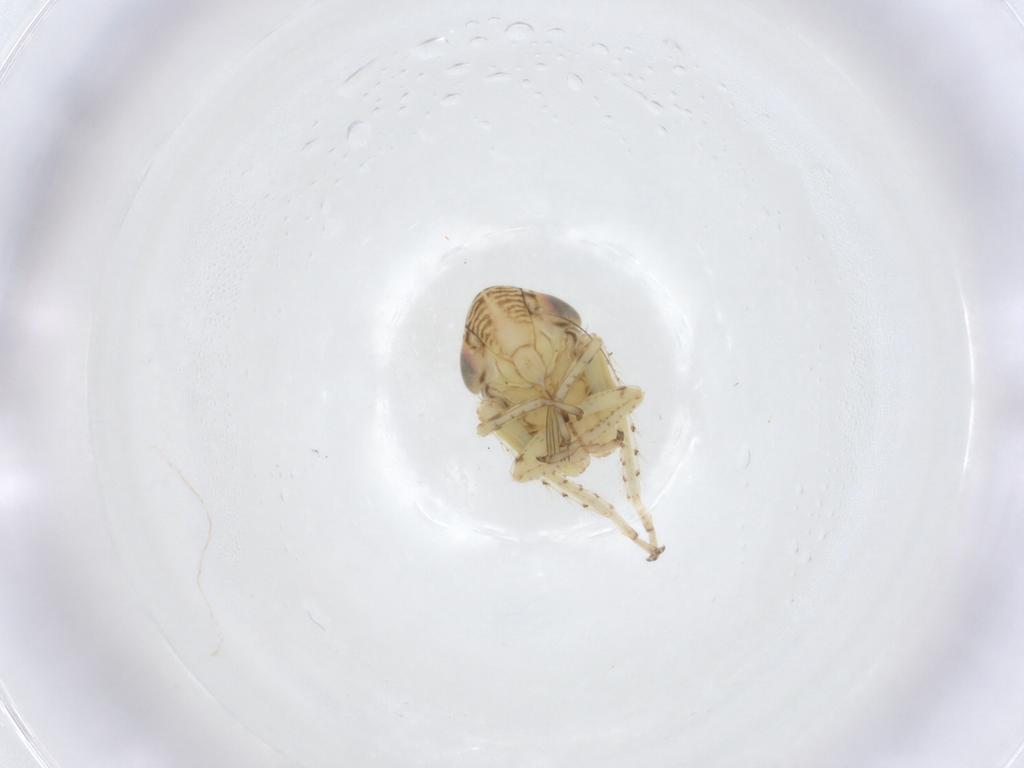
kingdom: Animalia
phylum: Arthropoda
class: Insecta
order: Hemiptera
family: Cicadellidae
